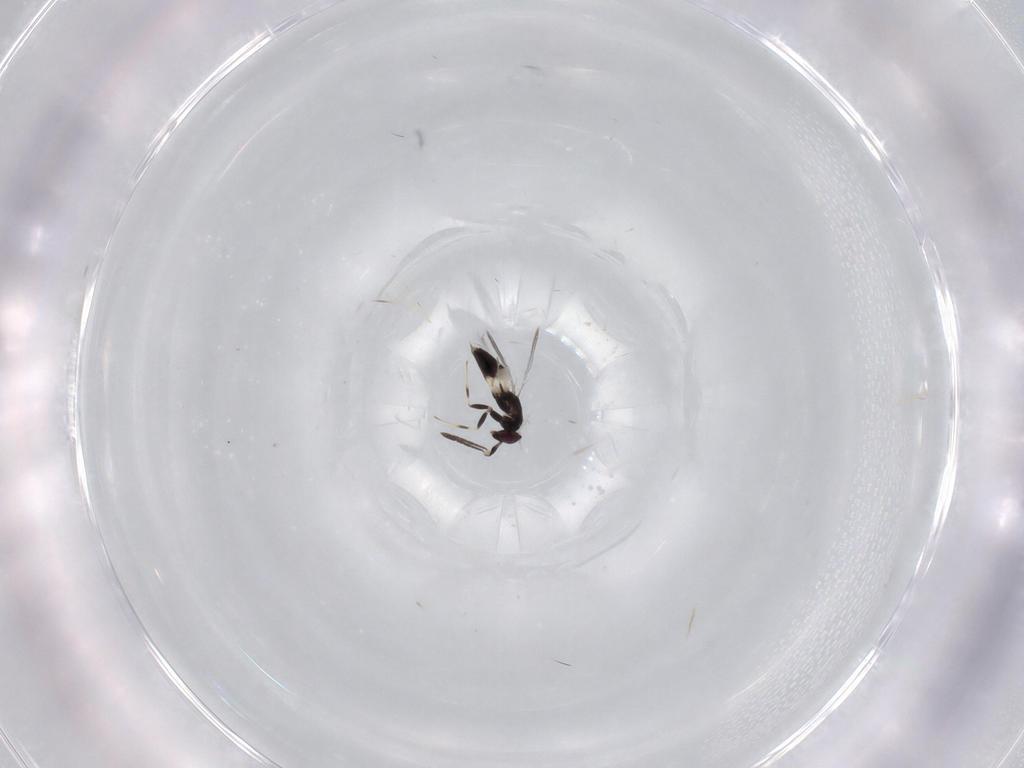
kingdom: Animalia
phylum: Arthropoda
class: Insecta
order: Hymenoptera
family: Mymaridae
